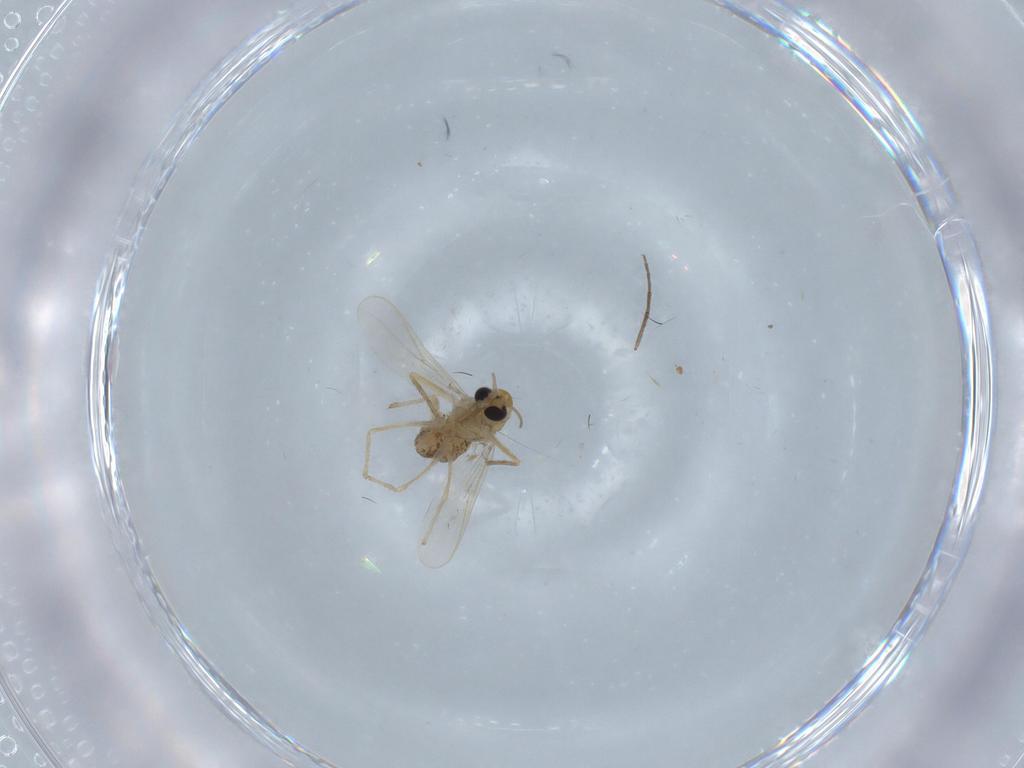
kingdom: Animalia
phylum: Arthropoda
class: Insecta
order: Diptera
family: Chironomidae
